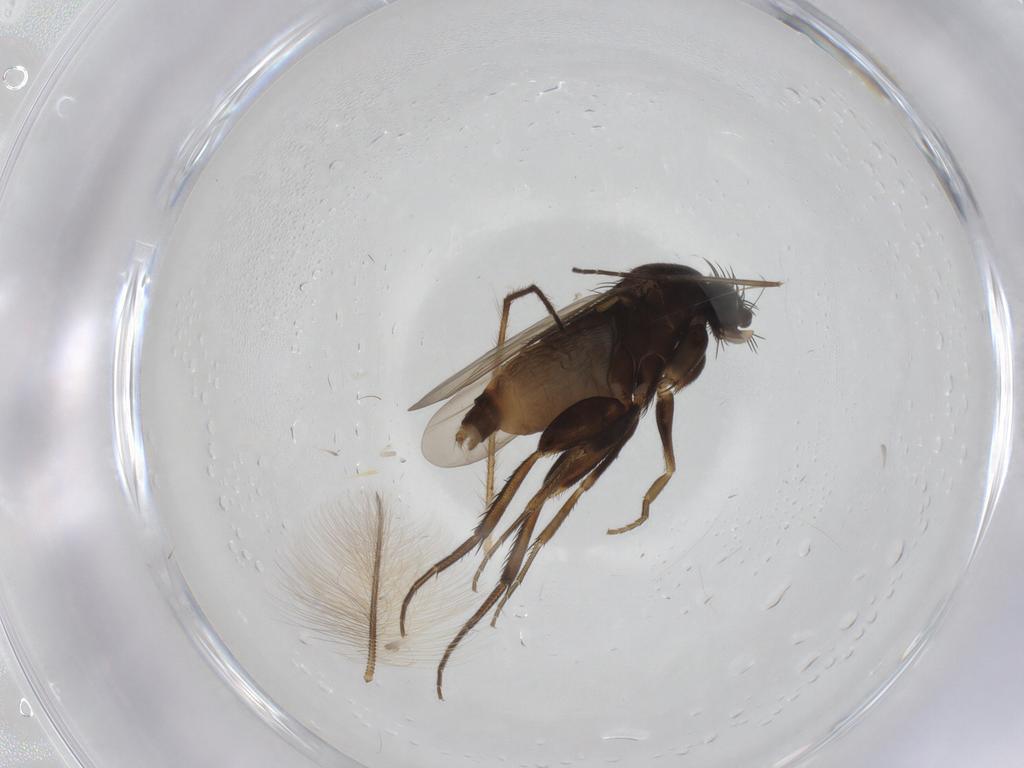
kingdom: Animalia
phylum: Arthropoda
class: Insecta
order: Diptera
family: Phoridae
